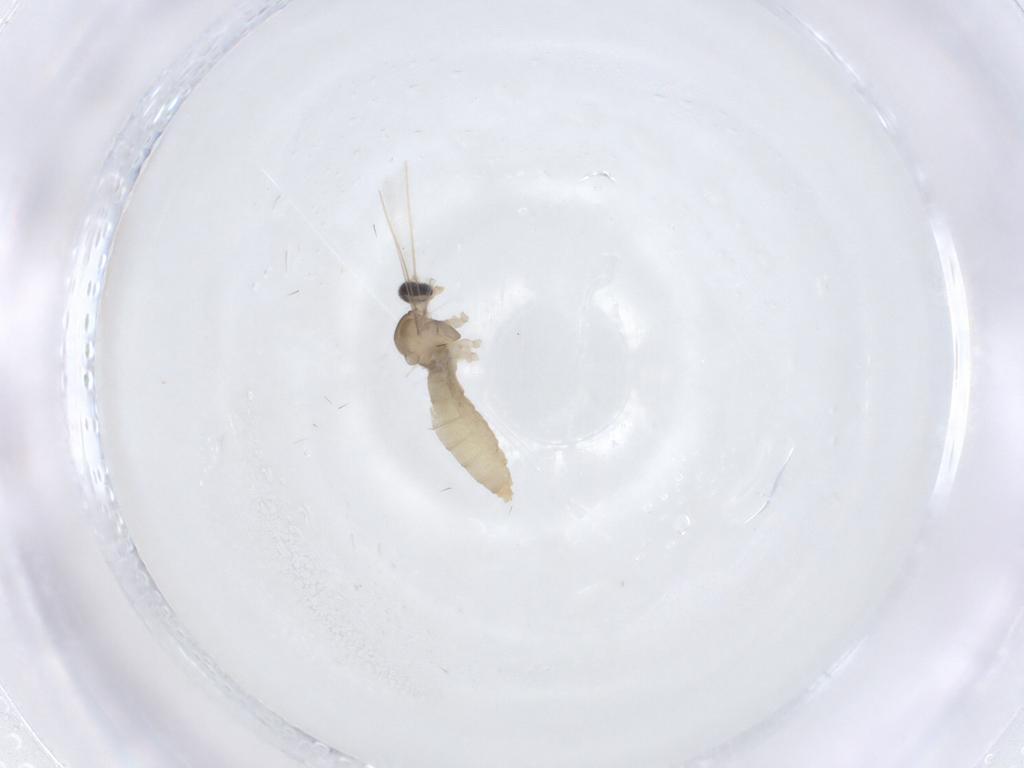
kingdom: Animalia
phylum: Arthropoda
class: Insecta
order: Diptera
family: Cecidomyiidae
